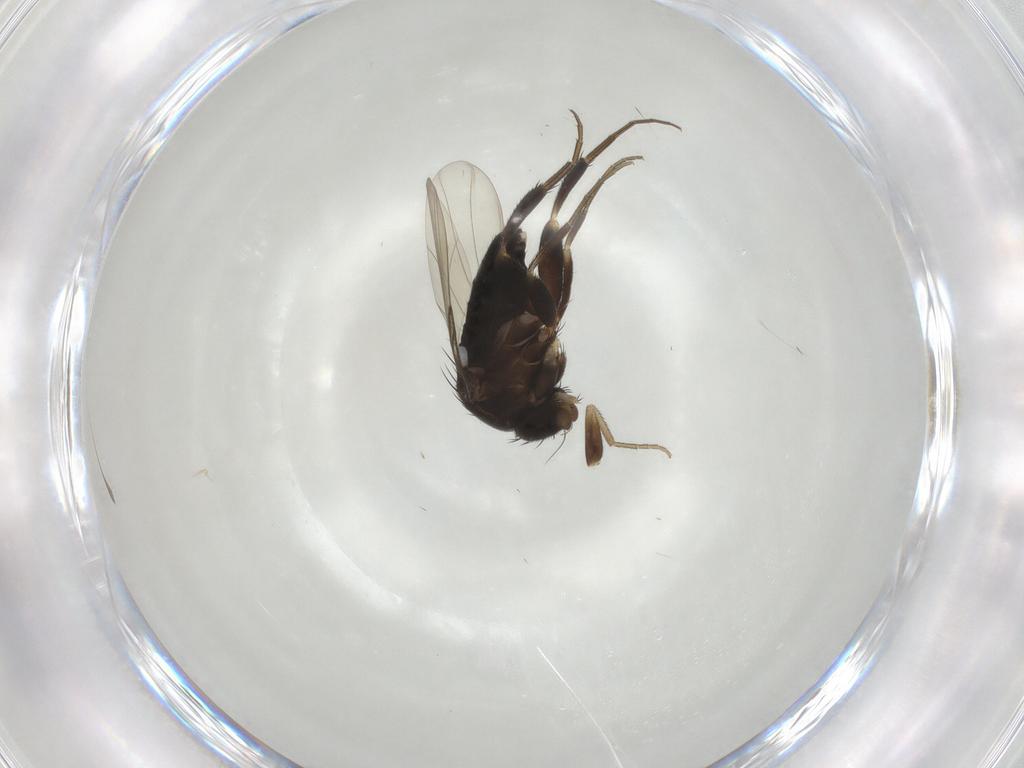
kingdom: Animalia
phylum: Arthropoda
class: Insecta
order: Diptera
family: Phoridae
